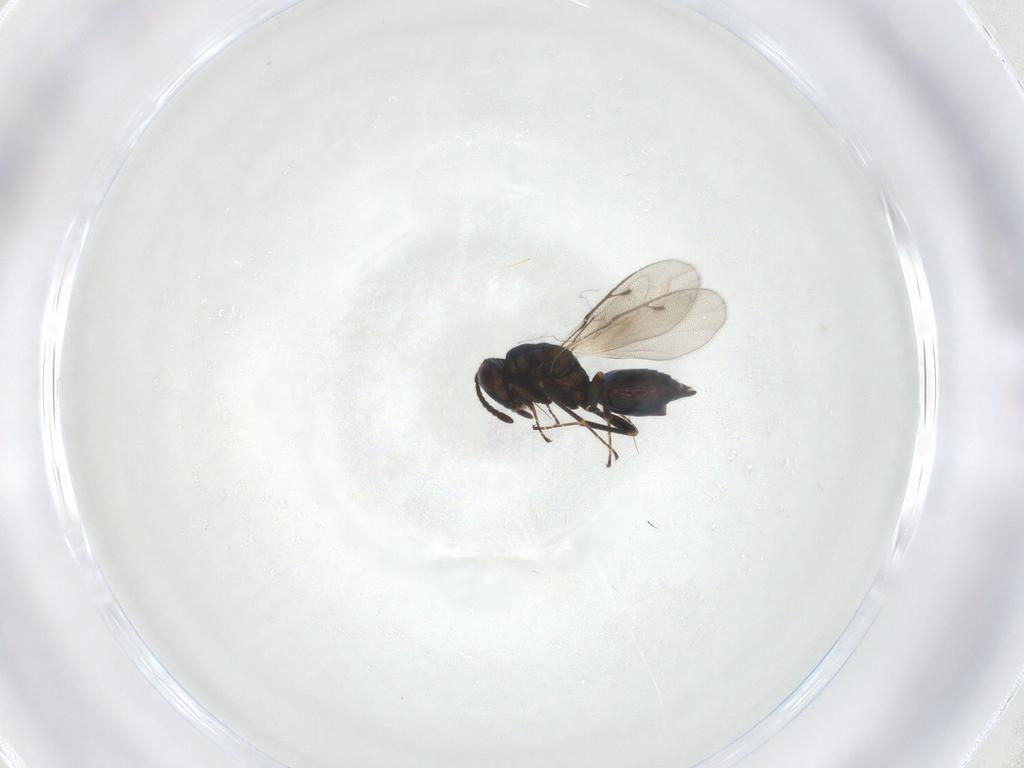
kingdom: Animalia
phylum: Arthropoda
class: Insecta
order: Hymenoptera
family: Pteromalidae
